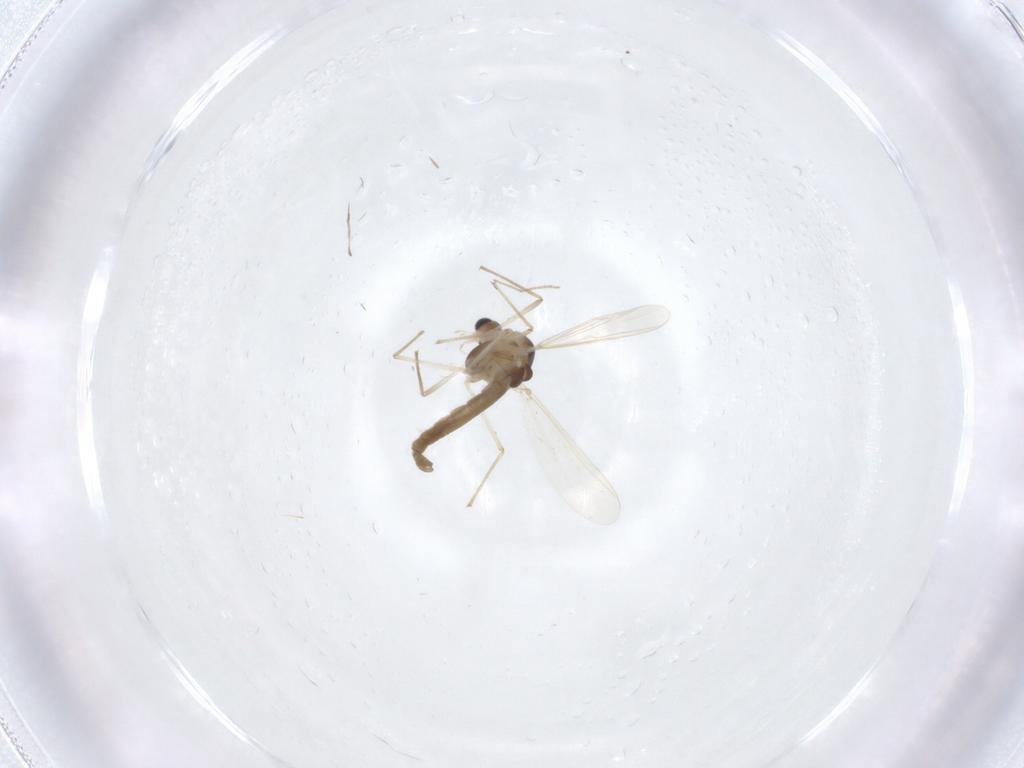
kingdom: Animalia
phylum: Arthropoda
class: Insecta
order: Diptera
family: Chironomidae
